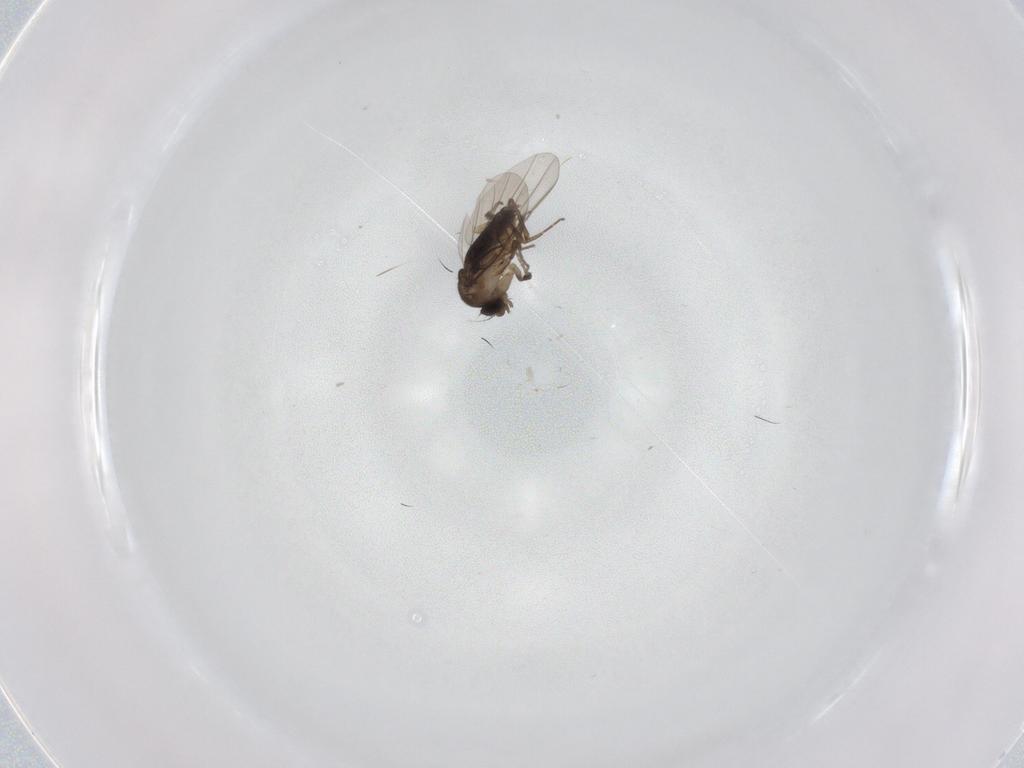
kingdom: Animalia
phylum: Arthropoda
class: Insecta
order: Diptera
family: Phoridae
